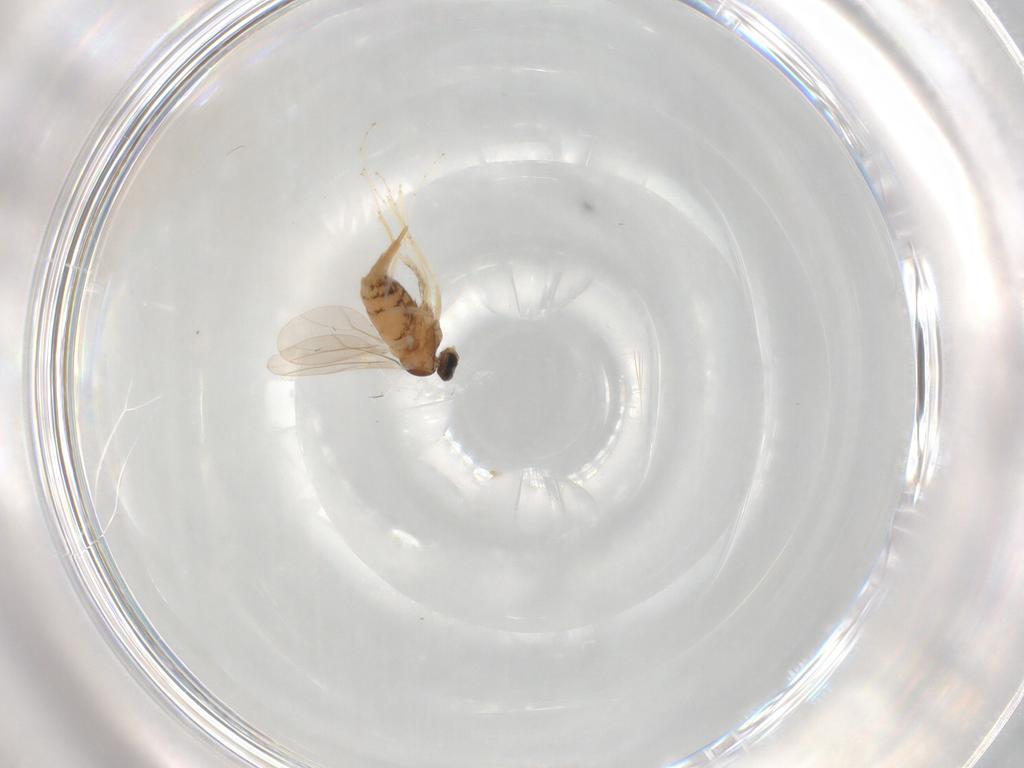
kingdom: Animalia
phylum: Arthropoda
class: Insecta
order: Diptera
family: Cecidomyiidae
